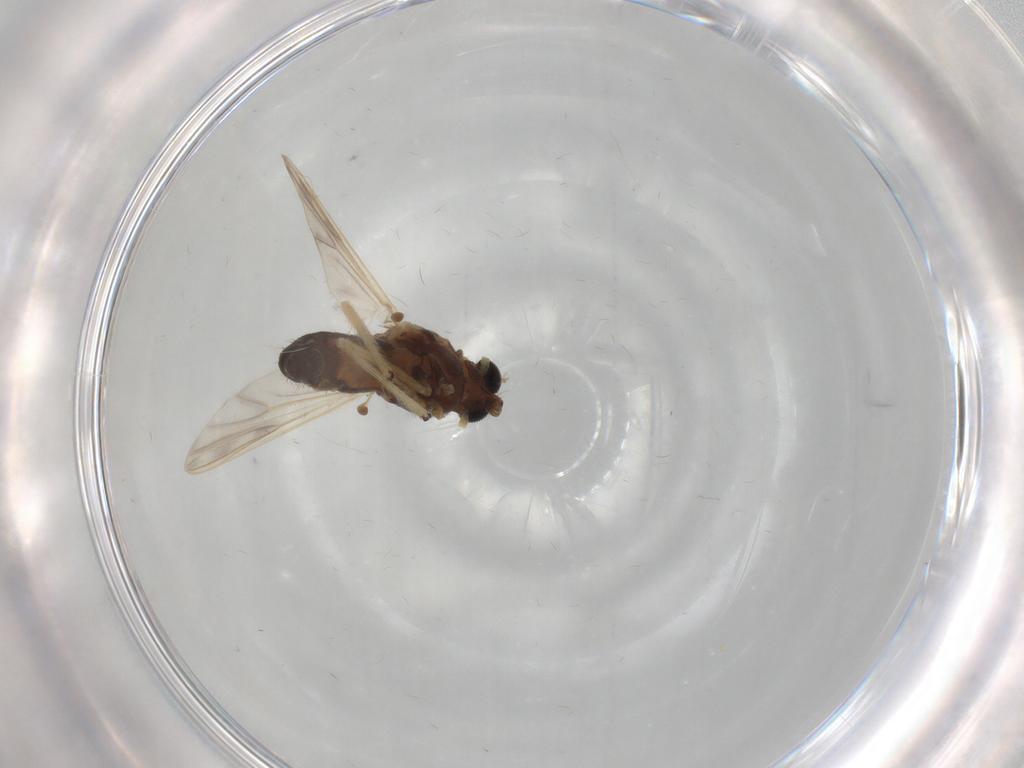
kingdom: Animalia
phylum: Arthropoda
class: Insecta
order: Diptera
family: Chironomidae
